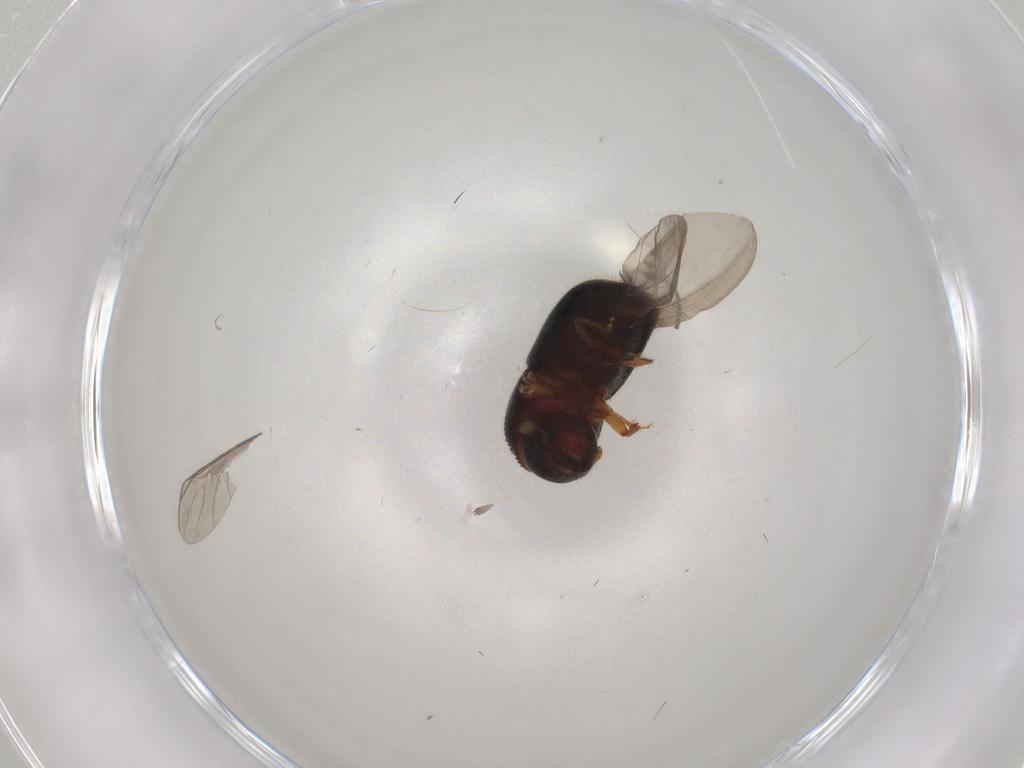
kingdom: Animalia
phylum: Arthropoda
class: Insecta
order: Coleoptera
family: Curculionidae
